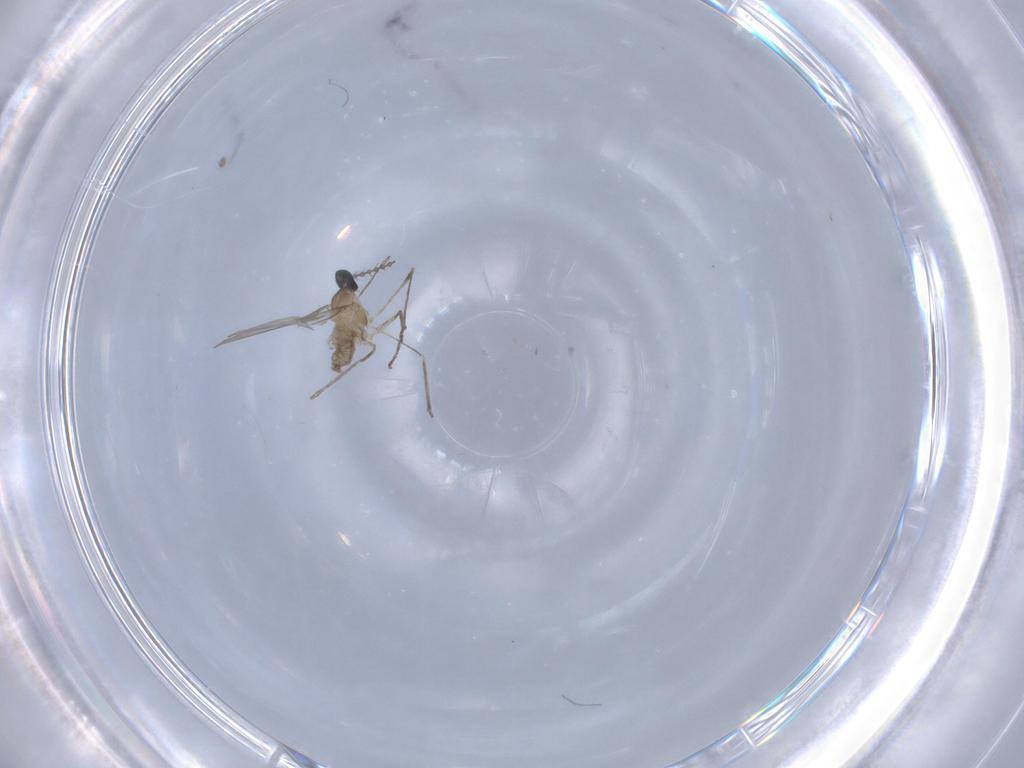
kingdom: Animalia
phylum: Arthropoda
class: Insecta
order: Diptera
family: Cecidomyiidae
